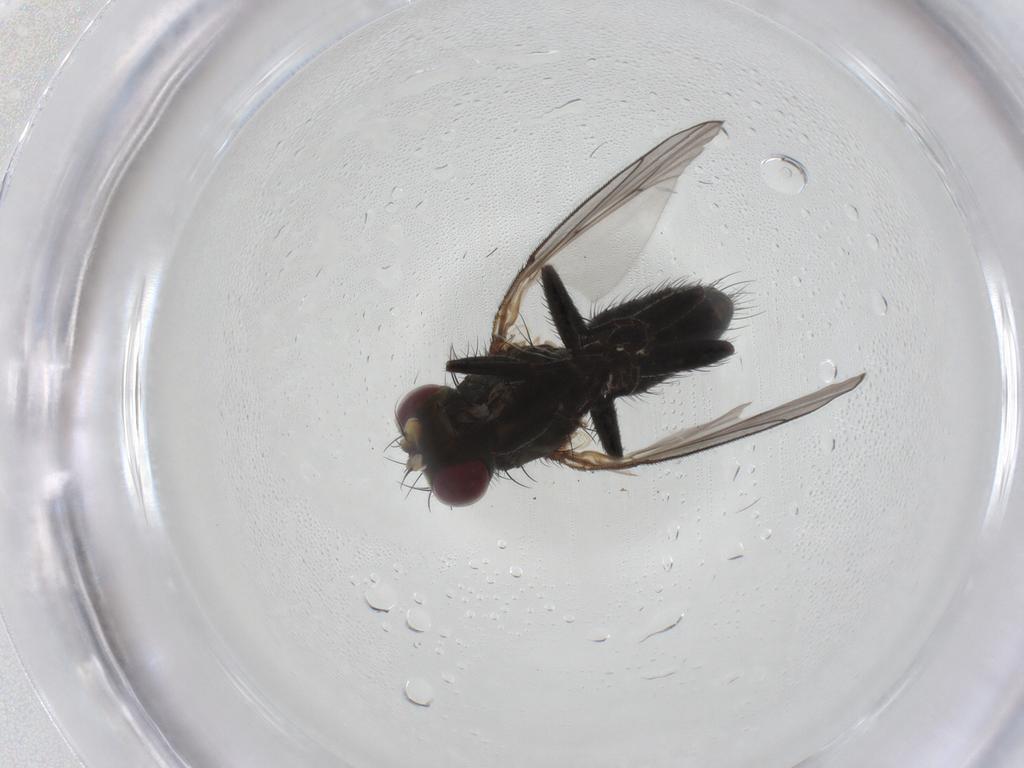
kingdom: Animalia
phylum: Arthropoda
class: Insecta
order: Diptera
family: Muscidae
